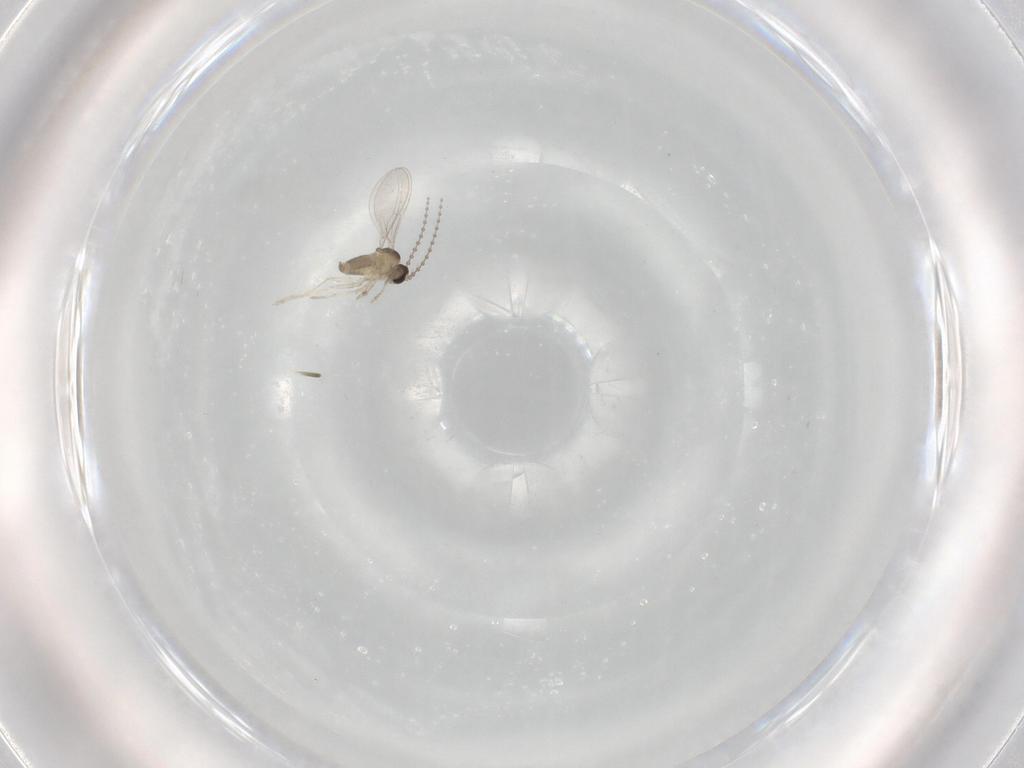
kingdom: Animalia
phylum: Arthropoda
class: Insecta
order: Diptera
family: Cecidomyiidae
